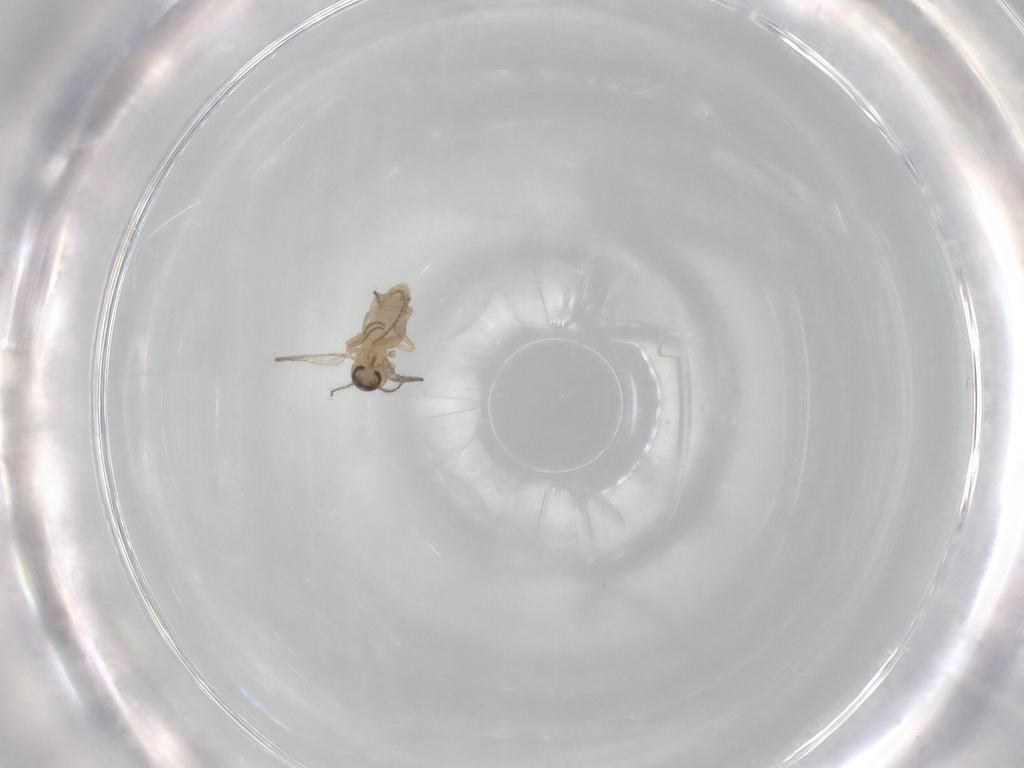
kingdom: Animalia
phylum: Arthropoda
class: Insecta
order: Diptera
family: Ceratopogonidae
